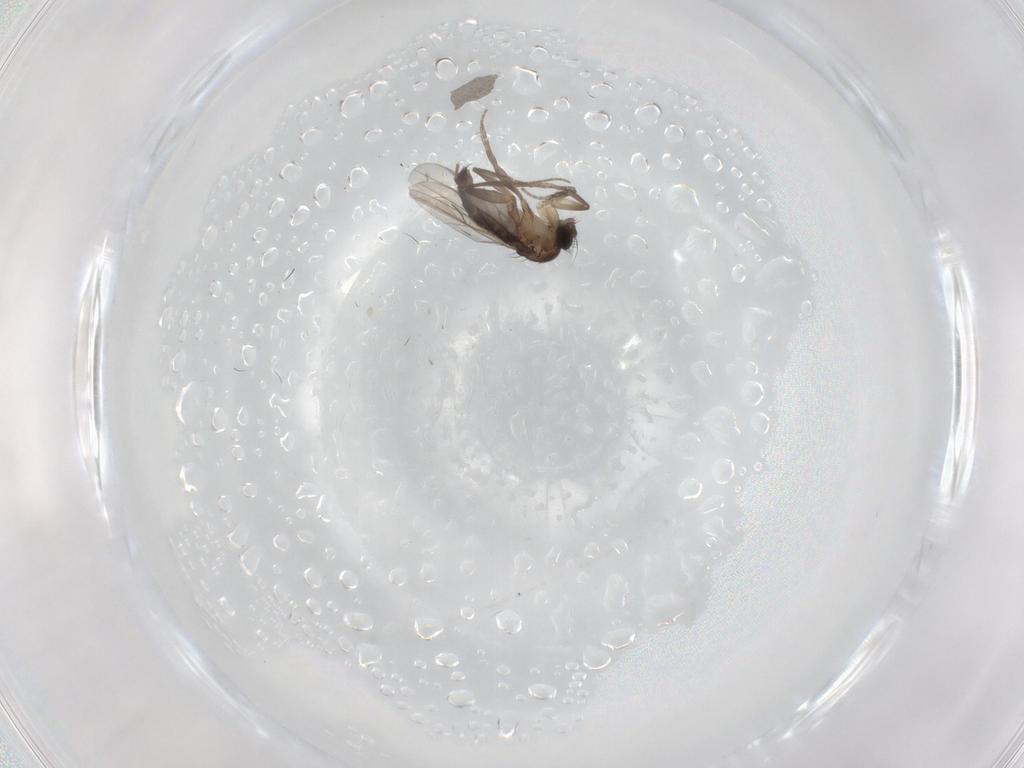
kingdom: Animalia
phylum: Arthropoda
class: Insecta
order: Diptera
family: Phoridae
